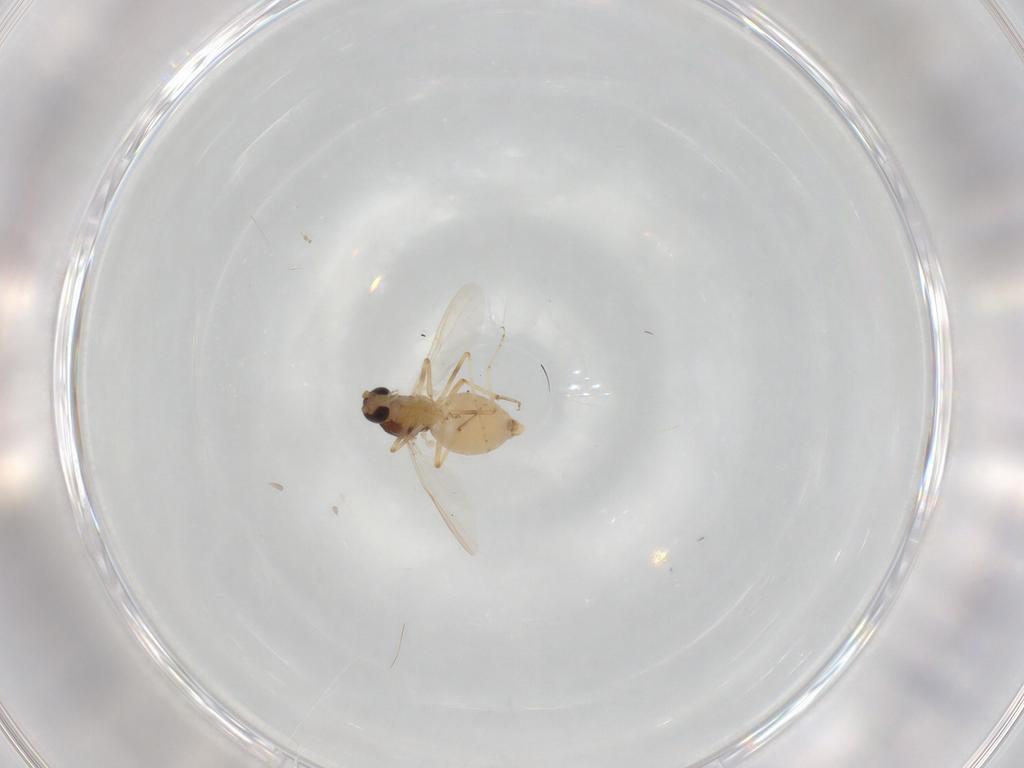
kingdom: Animalia
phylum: Arthropoda
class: Insecta
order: Diptera
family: Ceratopogonidae
